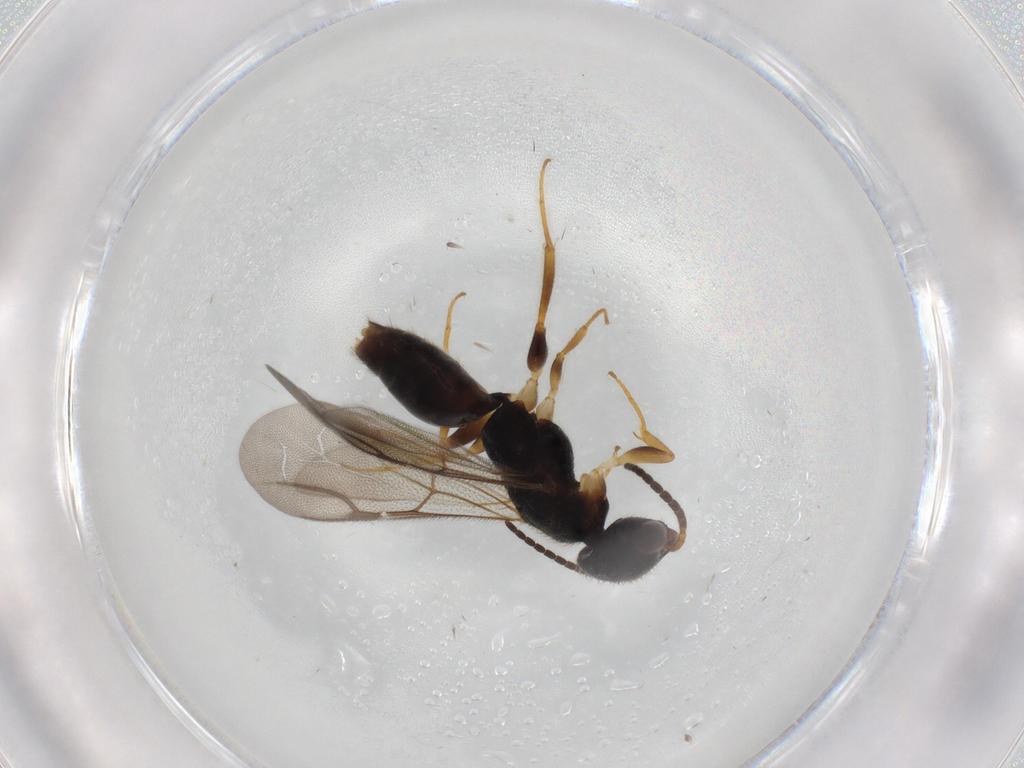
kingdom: Animalia
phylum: Arthropoda
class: Insecta
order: Hymenoptera
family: Bethylidae
